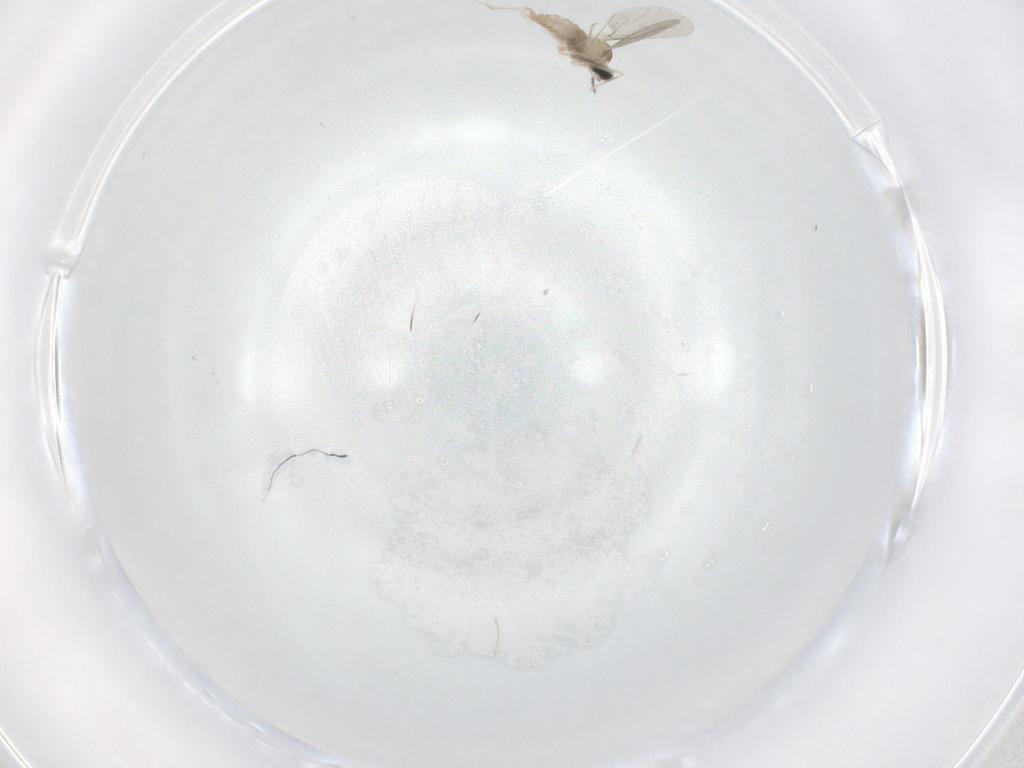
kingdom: Animalia
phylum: Arthropoda
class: Insecta
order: Diptera
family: Cecidomyiidae
